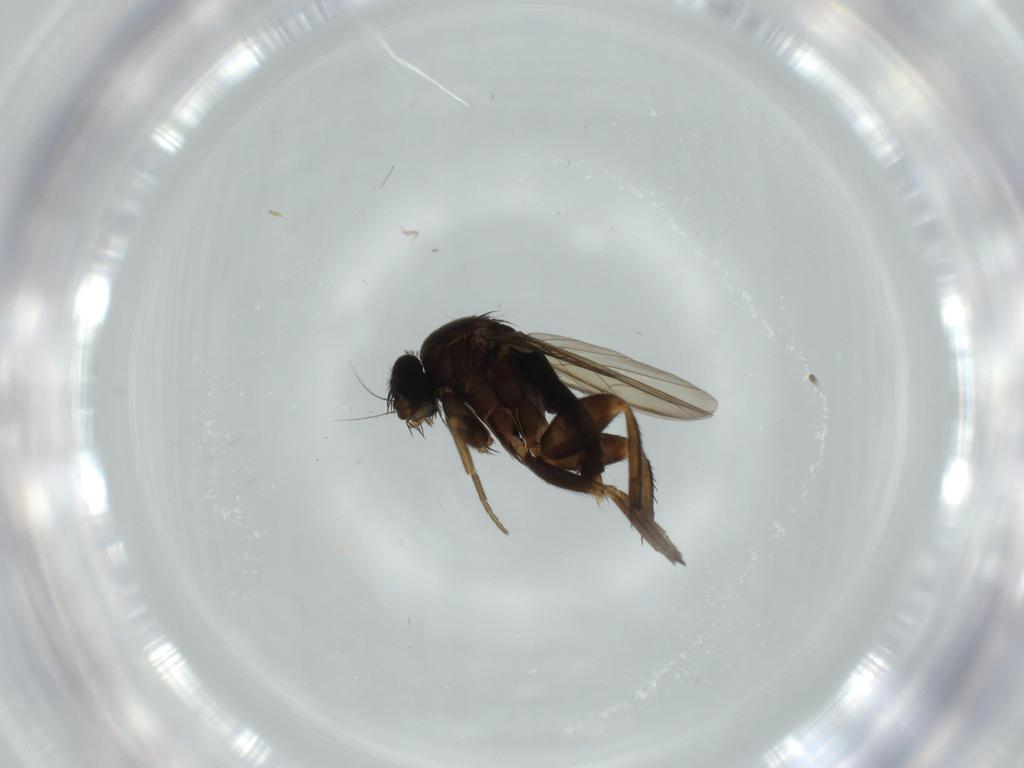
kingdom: Animalia
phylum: Arthropoda
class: Insecta
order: Diptera
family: Phoridae
